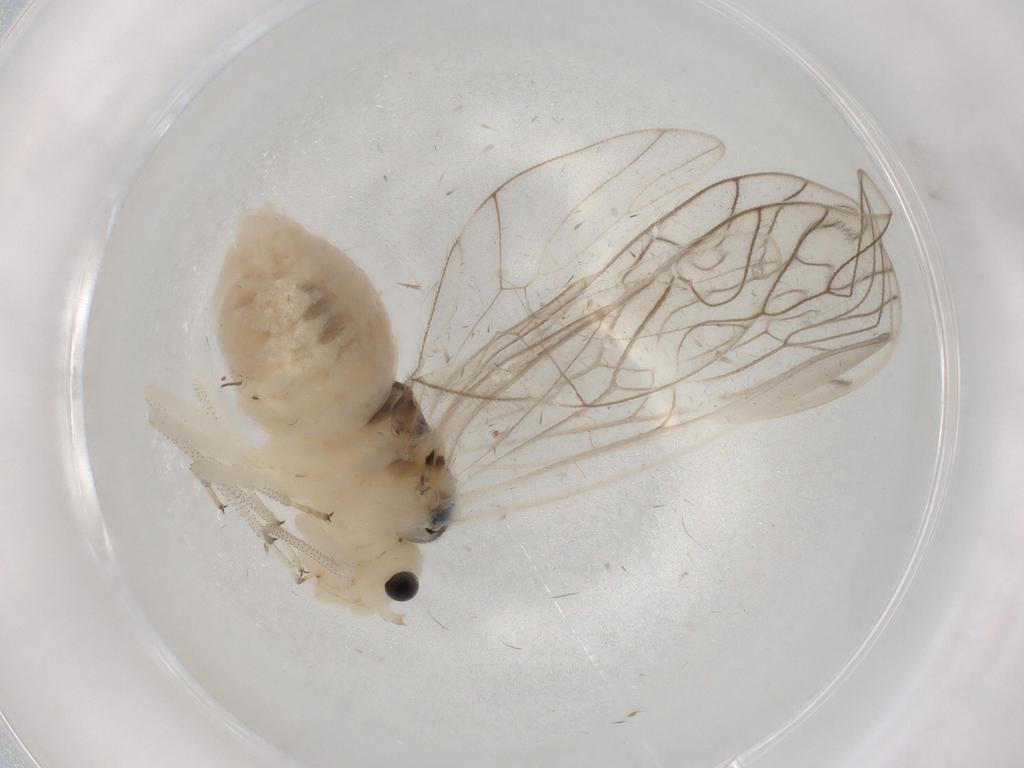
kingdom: Animalia
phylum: Arthropoda
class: Insecta
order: Psocodea
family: Amphipsocidae
